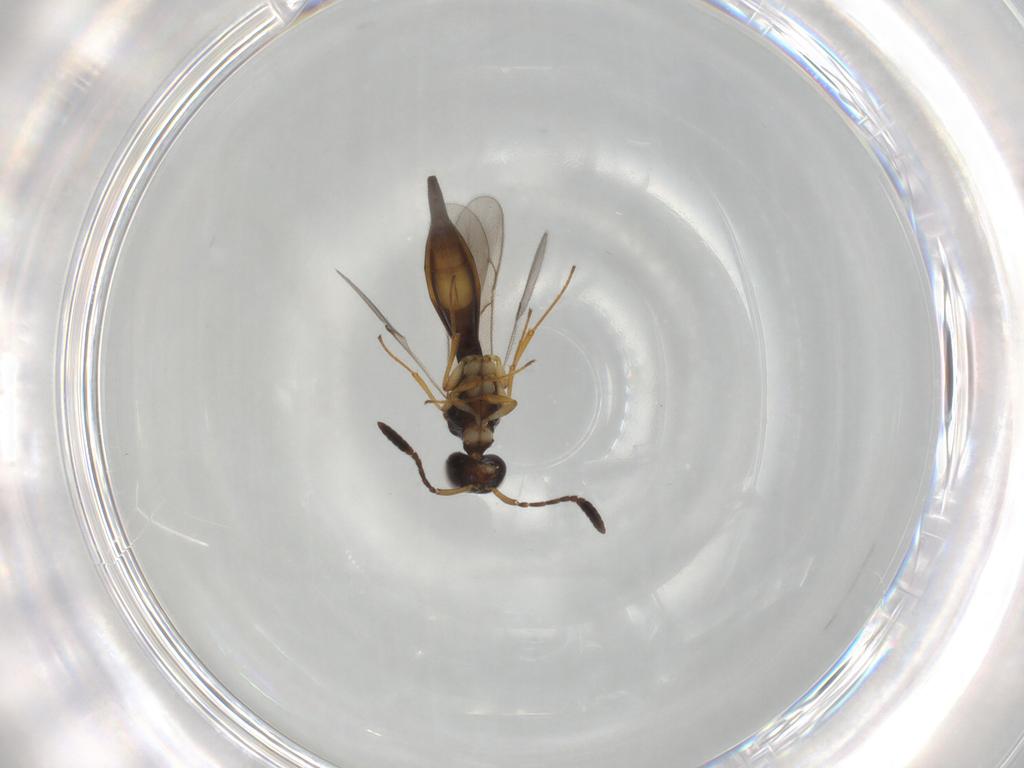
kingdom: Animalia
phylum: Arthropoda
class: Insecta
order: Hymenoptera
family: Scelionidae
